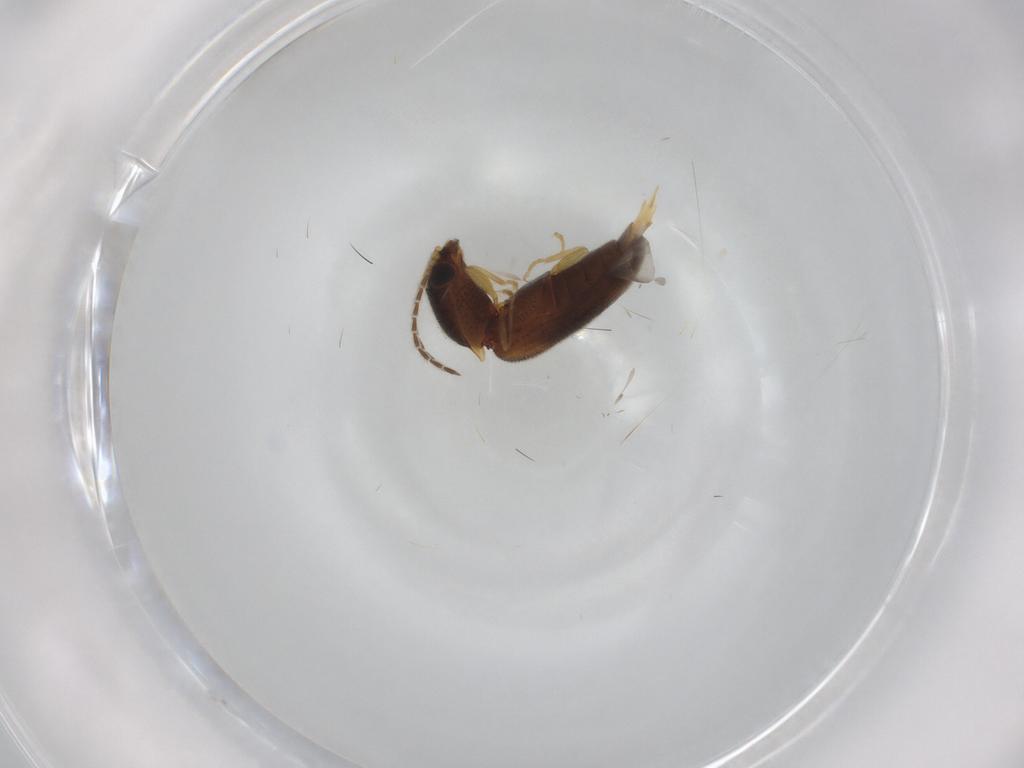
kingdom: Animalia
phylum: Arthropoda
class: Insecta
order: Coleoptera
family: Elateridae
